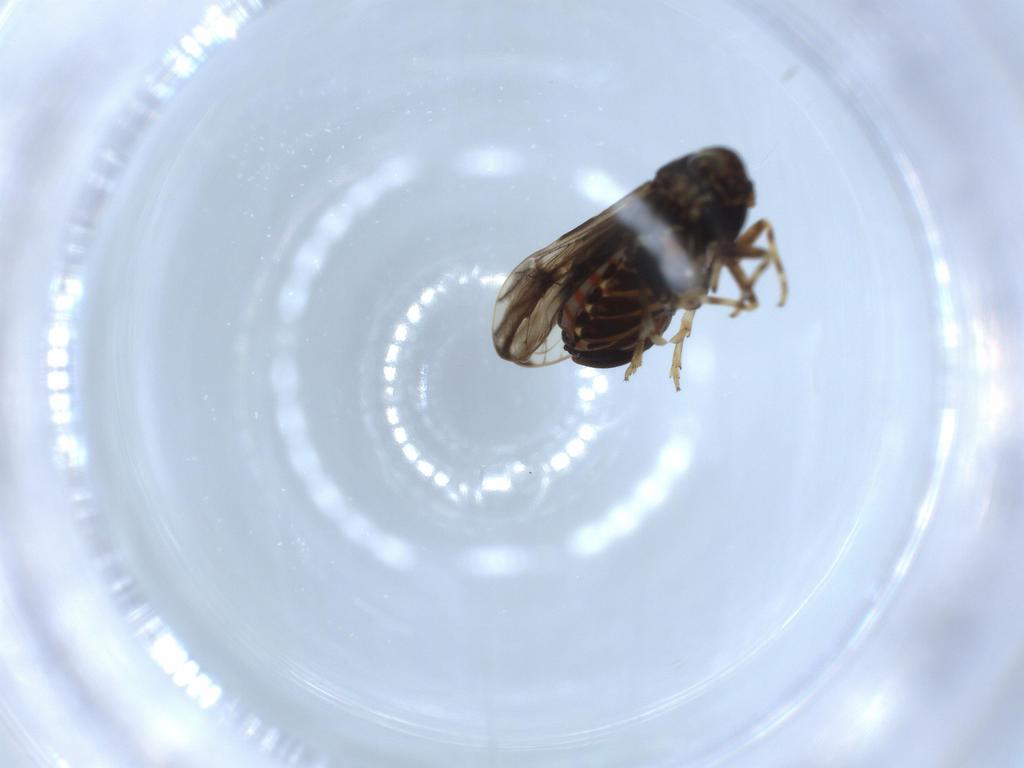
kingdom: Animalia
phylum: Arthropoda
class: Insecta
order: Hemiptera
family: Delphacidae
